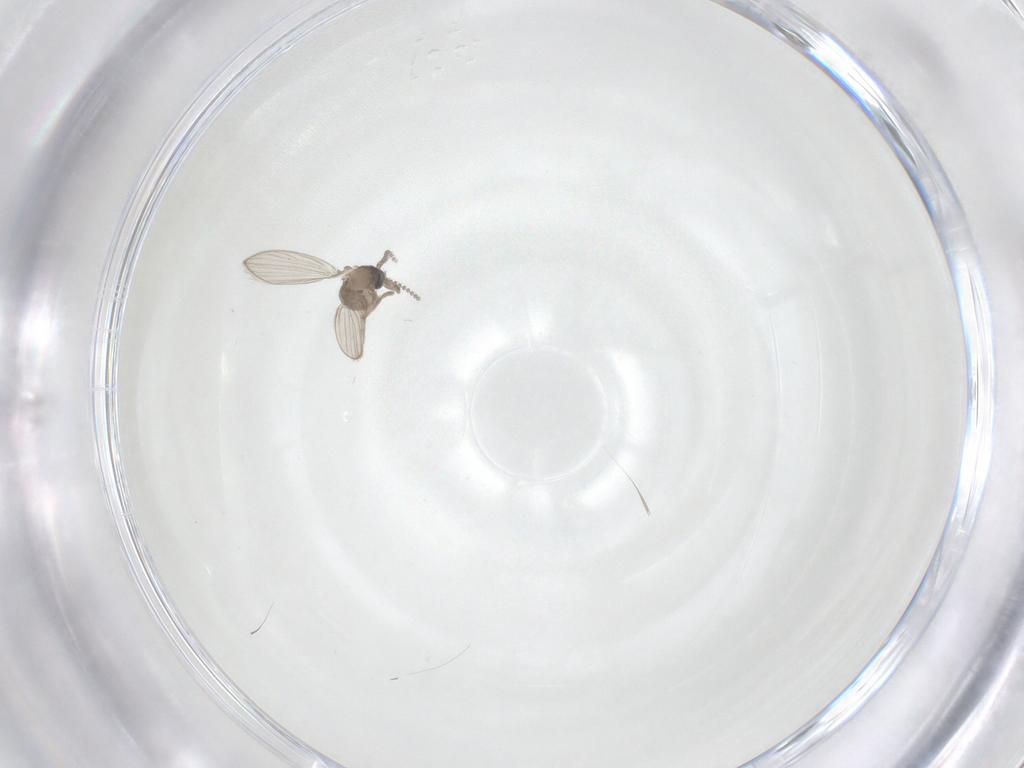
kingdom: Animalia
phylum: Arthropoda
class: Insecta
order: Diptera
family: Psychodidae
